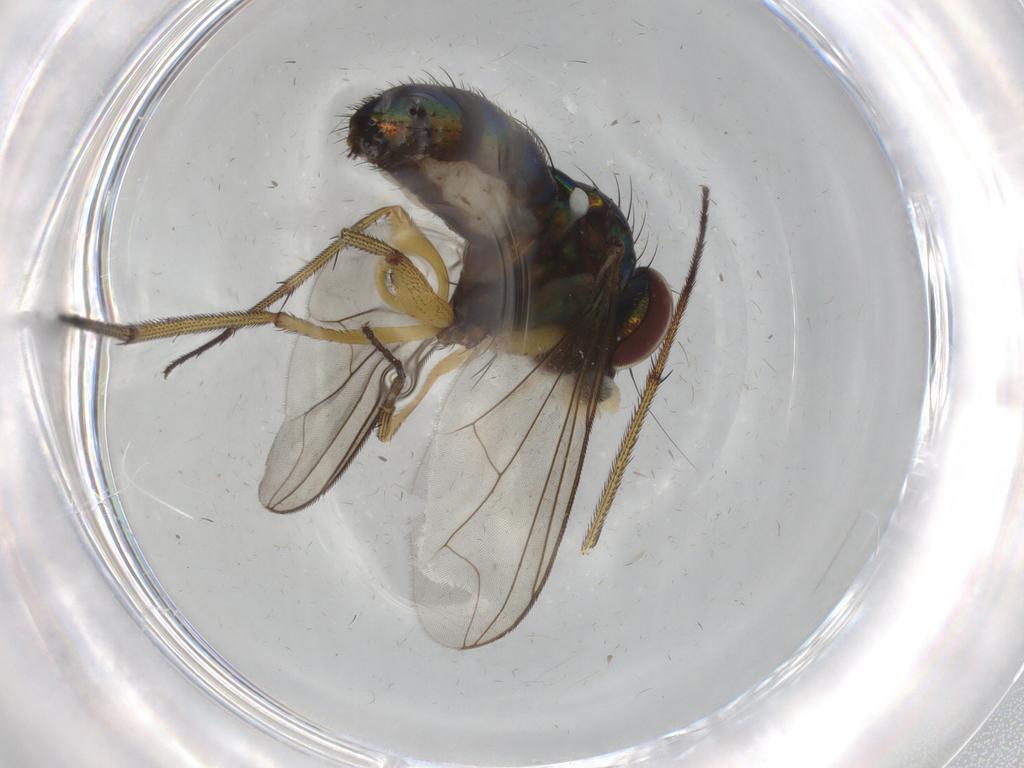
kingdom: Animalia
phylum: Arthropoda
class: Insecta
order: Diptera
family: Dolichopodidae
